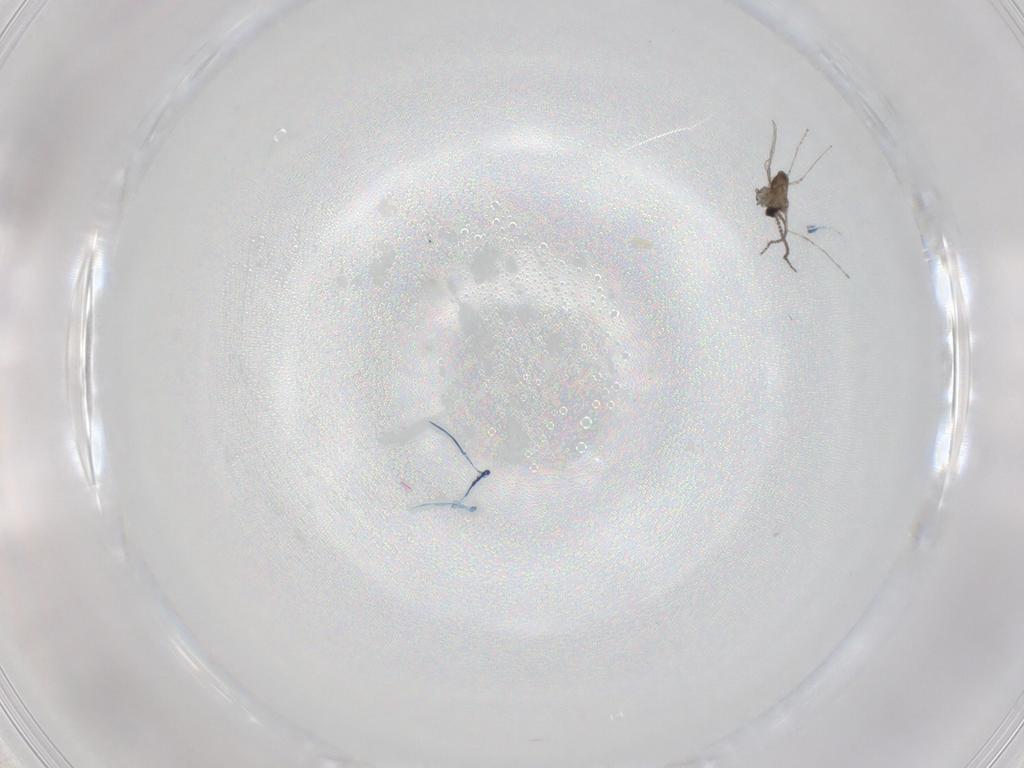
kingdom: Animalia
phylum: Arthropoda
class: Insecta
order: Diptera
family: Cecidomyiidae
